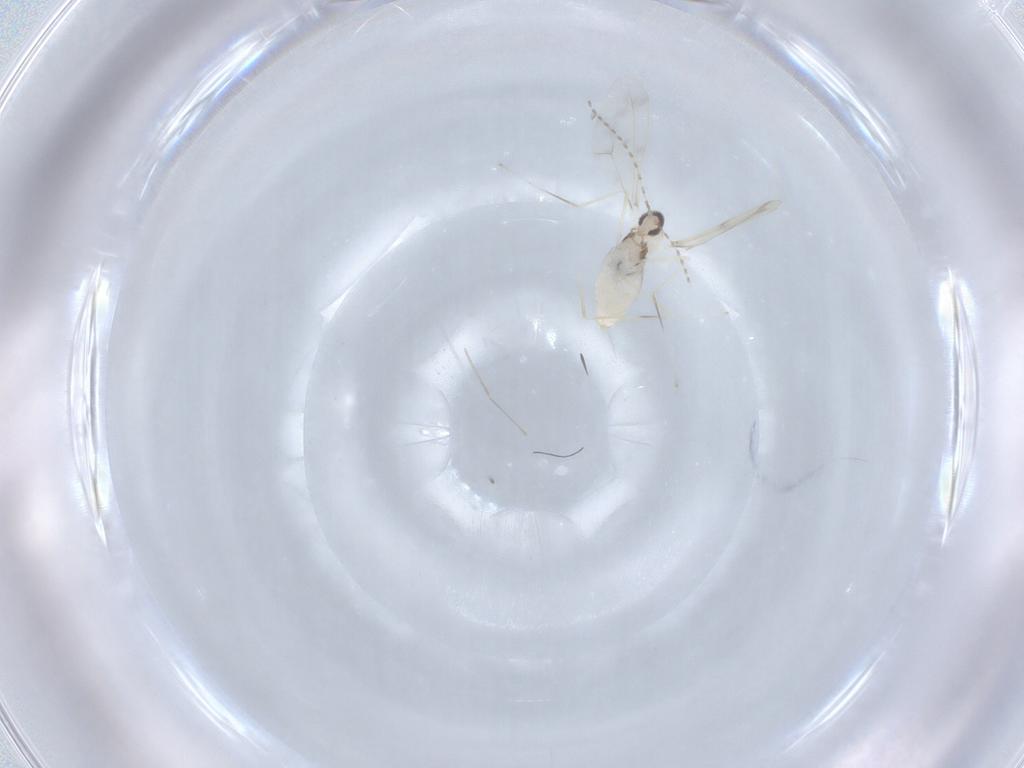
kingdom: Animalia
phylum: Arthropoda
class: Insecta
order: Diptera
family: Cecidomyiidae
